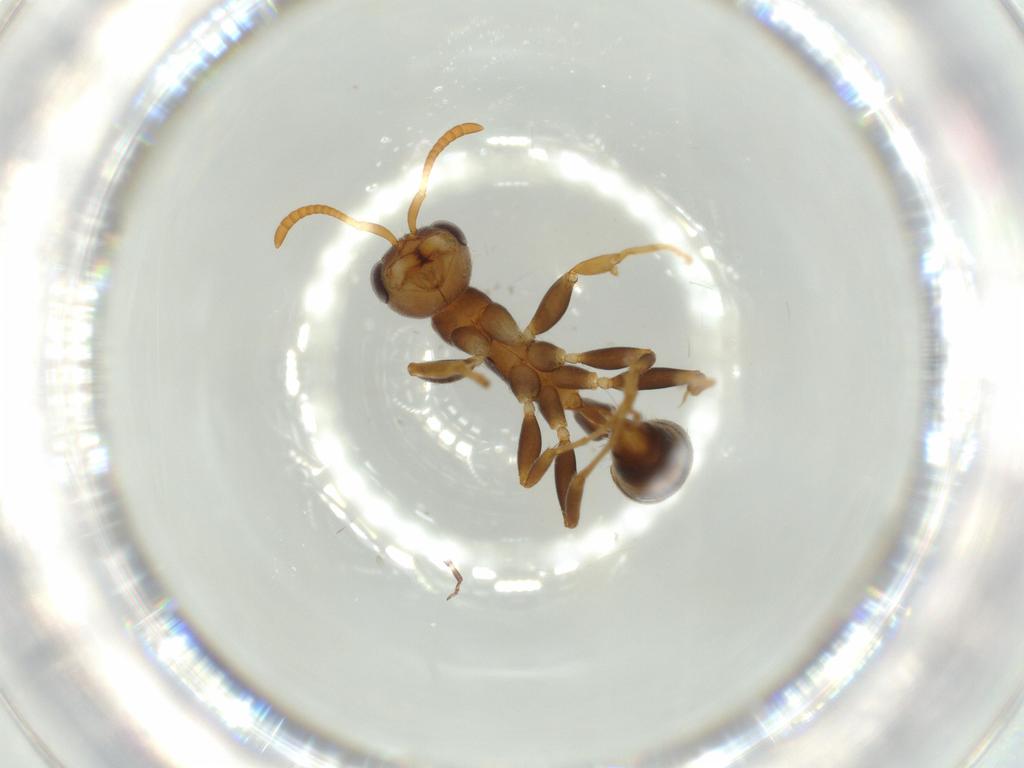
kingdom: Animalia
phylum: Arthropoda
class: Insecta
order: Hymenoptera
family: Formicidae
